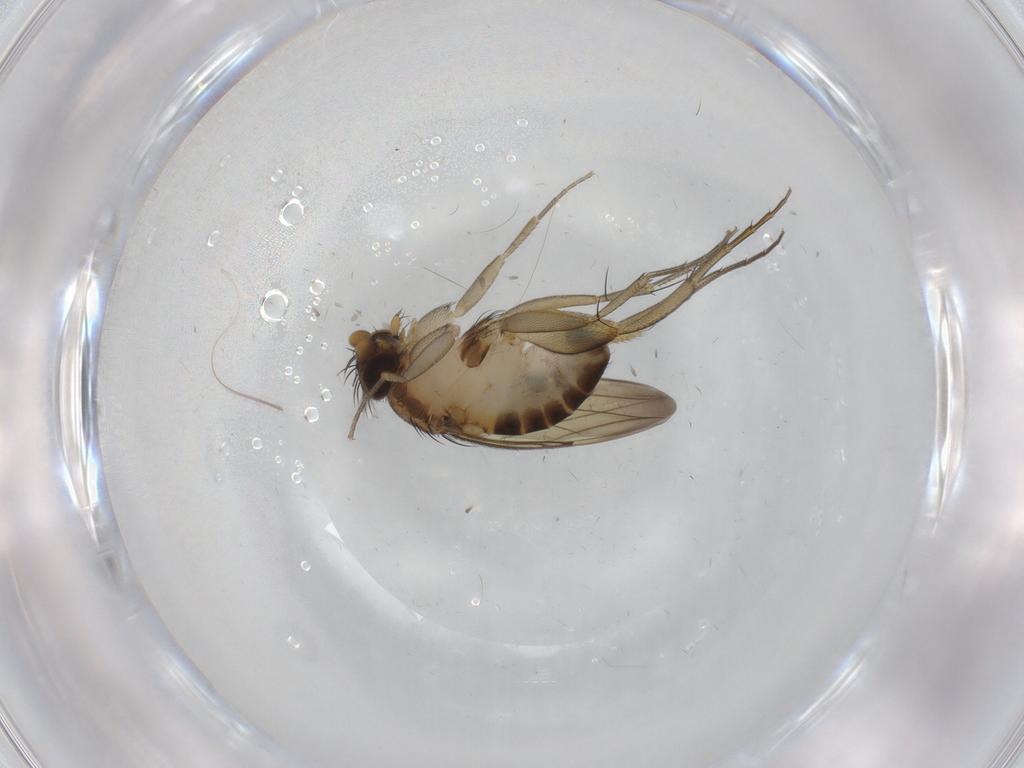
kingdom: Animalia
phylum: Arthropoda
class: Insecta
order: Diptera
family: Phoridae
